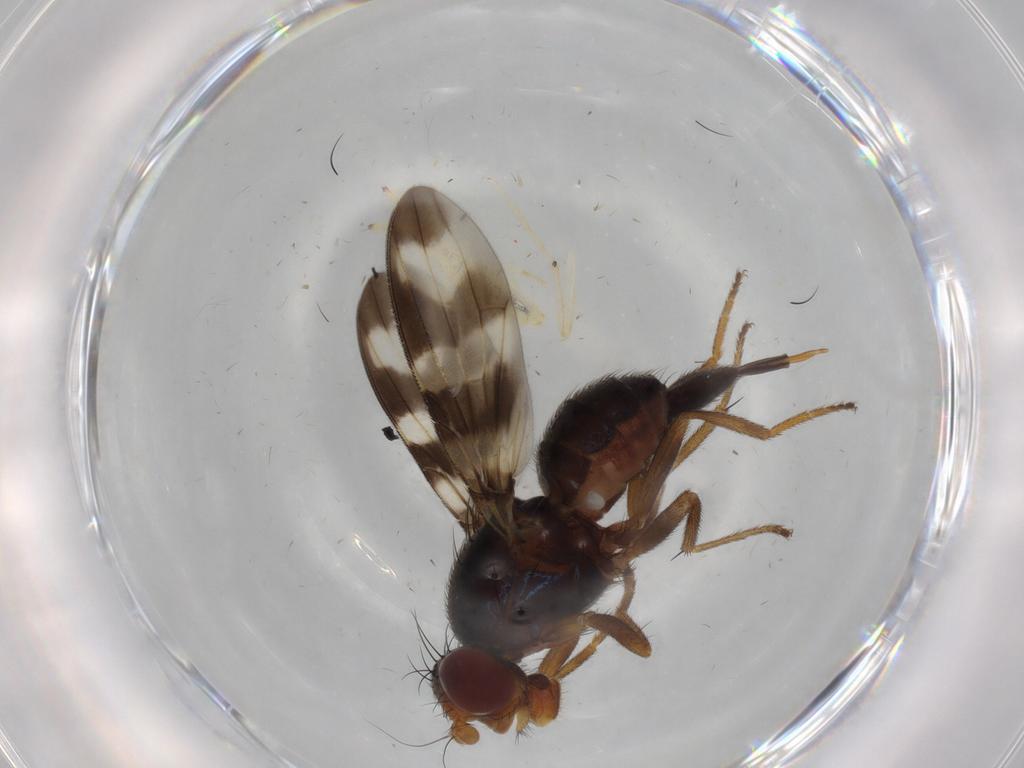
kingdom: Animalia
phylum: Arthropoda
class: Insecta
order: Diptera
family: Ulidiidae
